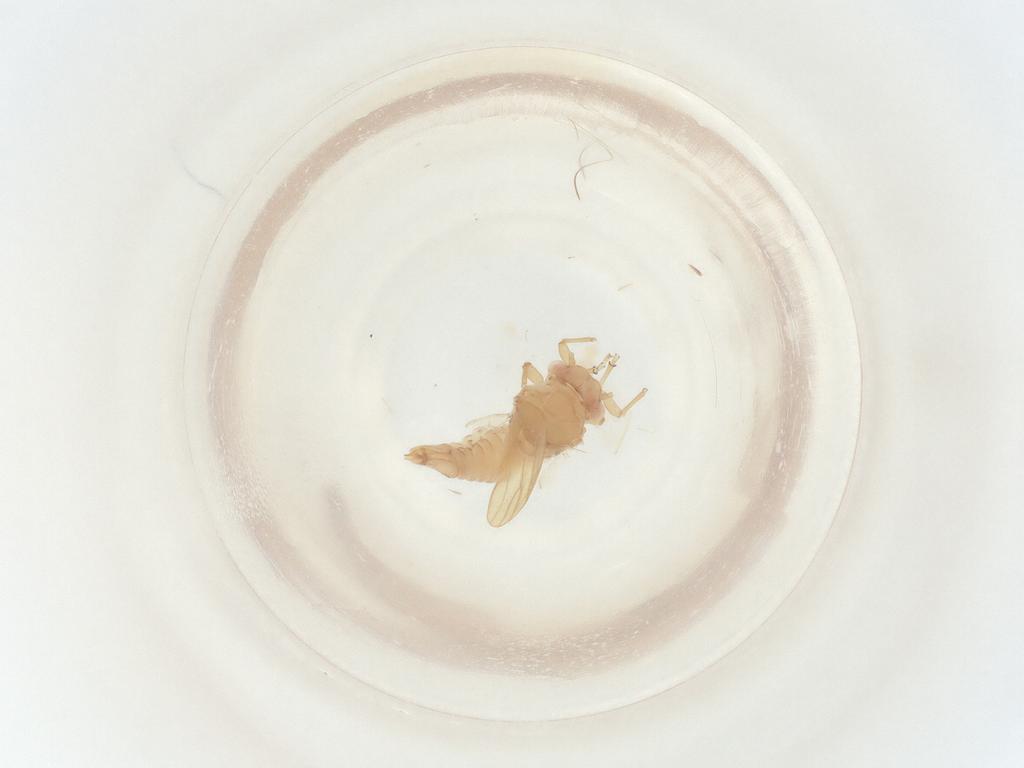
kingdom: Animalia
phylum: Arthropoda
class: Insecta
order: Hemiptera
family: Liviidae
